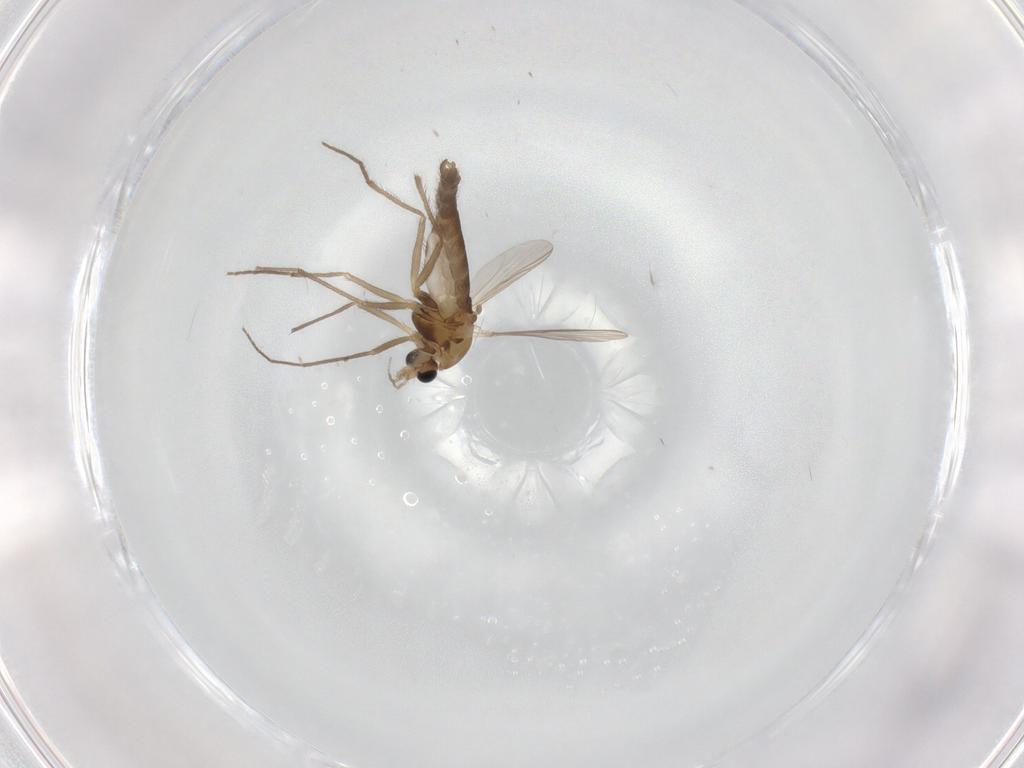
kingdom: Animalia
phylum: Arthropoda
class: Insecta
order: Diptera
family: Chironomidae
